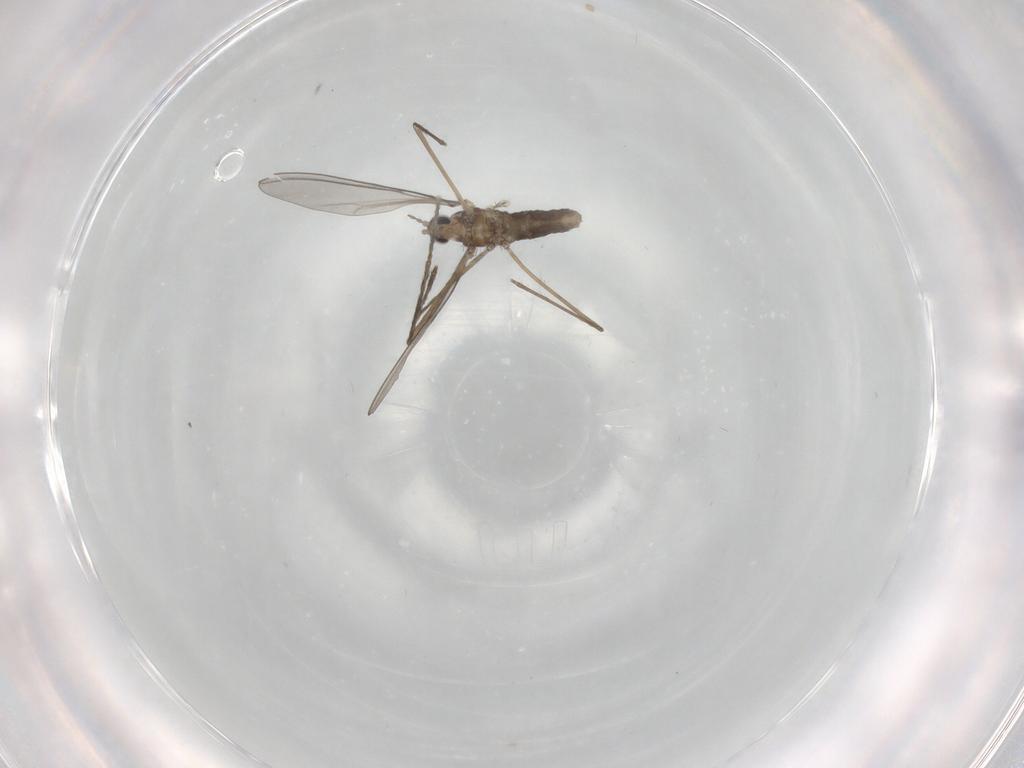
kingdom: Animalia
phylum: Arthropoda
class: Insecta
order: Diptera
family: Cecidomyiidae
